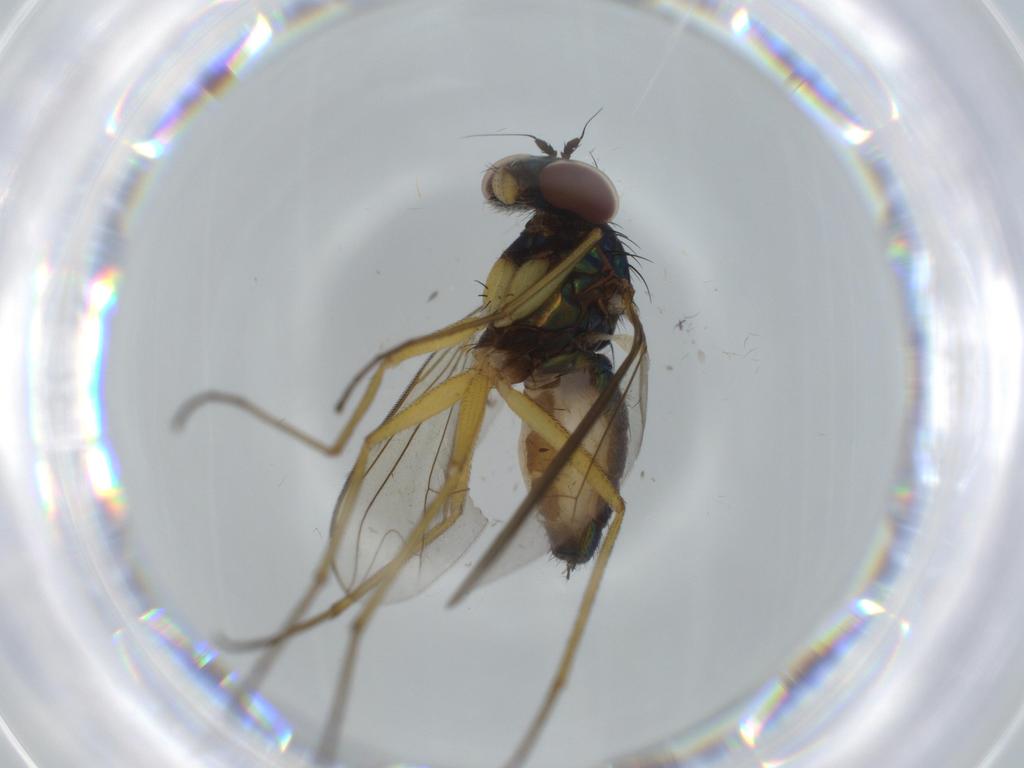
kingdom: Animalia
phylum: Arthropoda
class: Insecta
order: Diptera
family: Dolichopodidae
